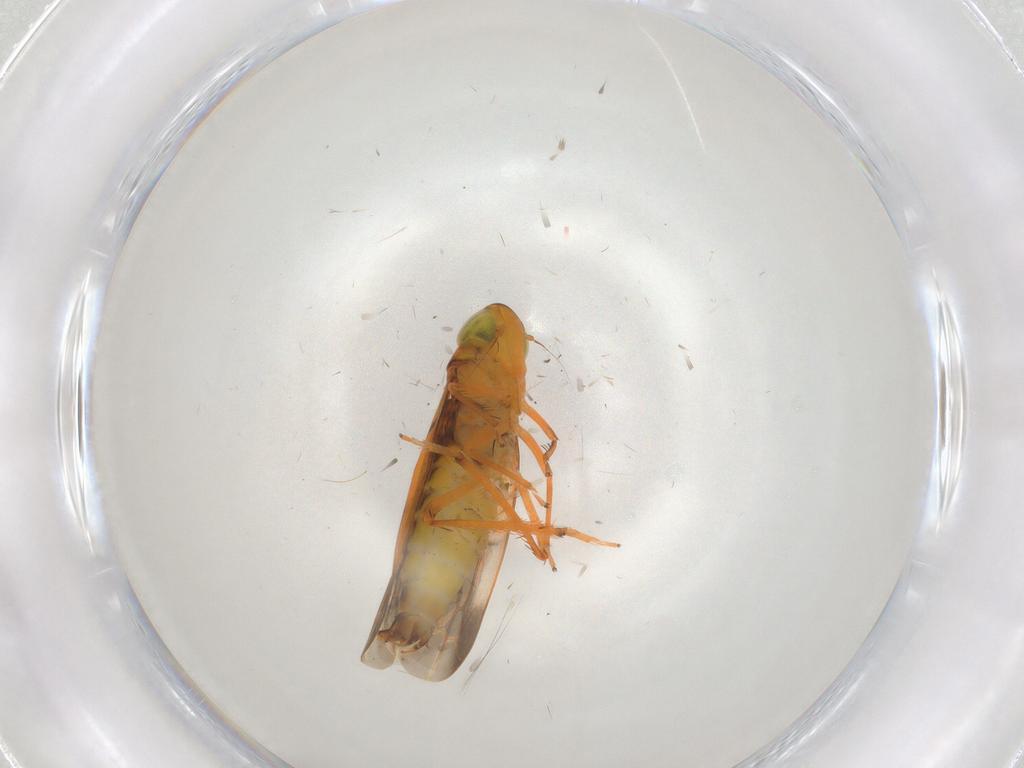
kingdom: Animalia
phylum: Arthropoda
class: Insecta
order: Hemiptera
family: Cicadellidae
